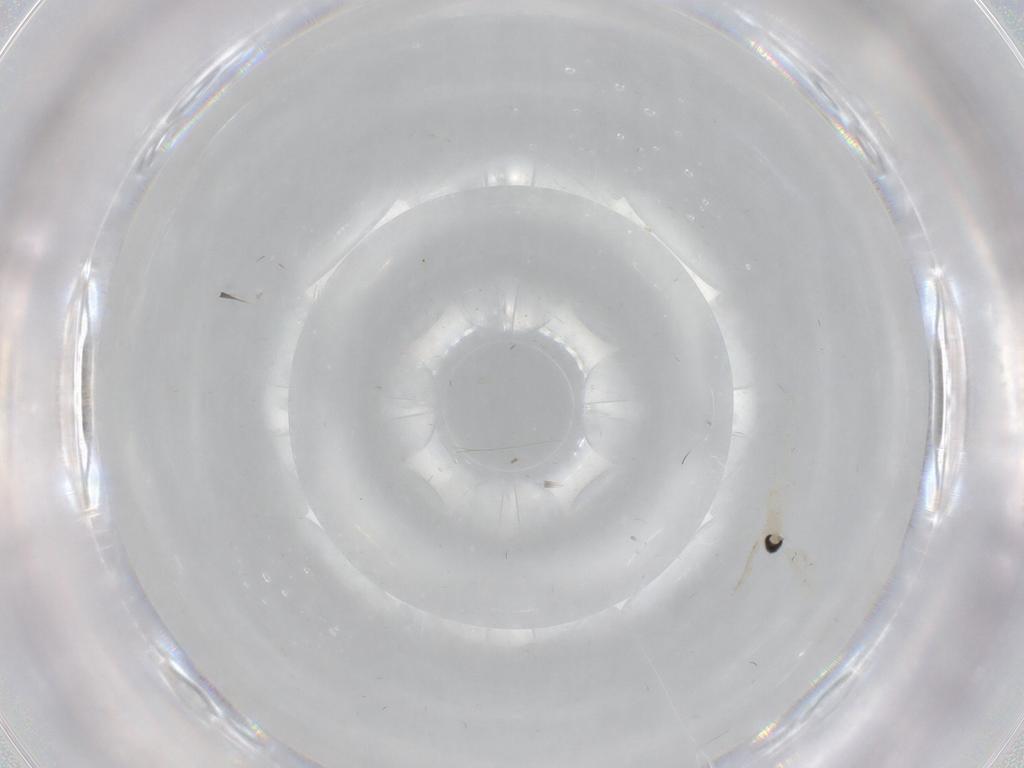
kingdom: Animalia
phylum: Arthropoda
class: Insecta
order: Diptera
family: Cecidomyiidae
